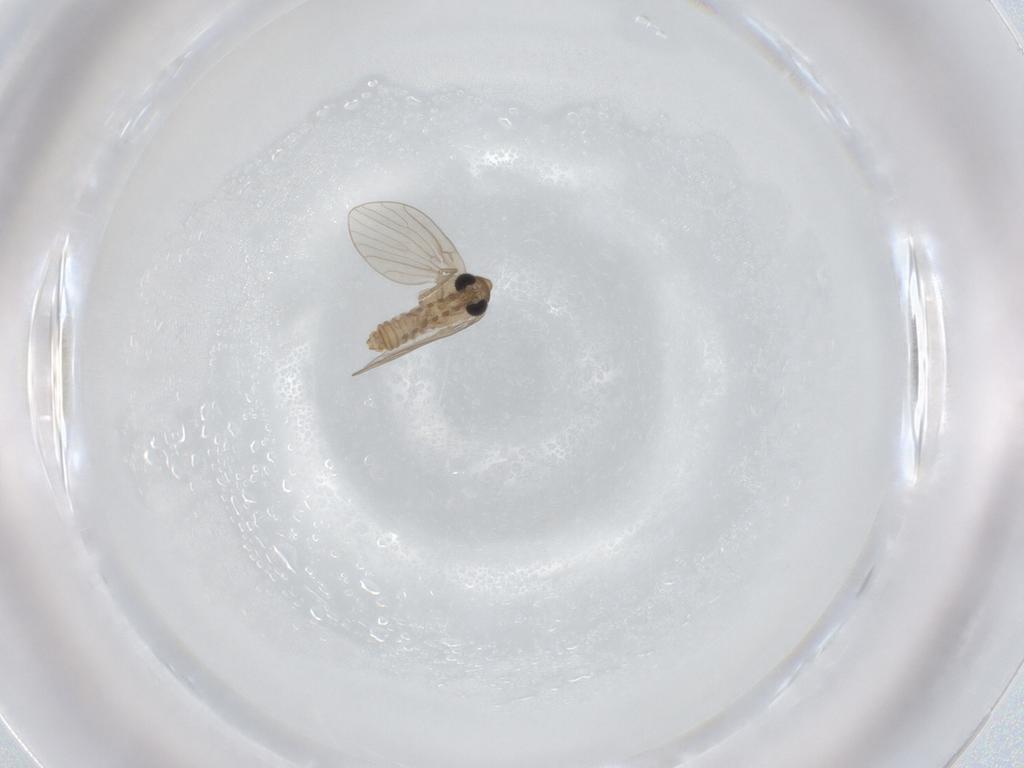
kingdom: Animalia
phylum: Arthropoda
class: Insecta
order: Diptera
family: Psychodidae
